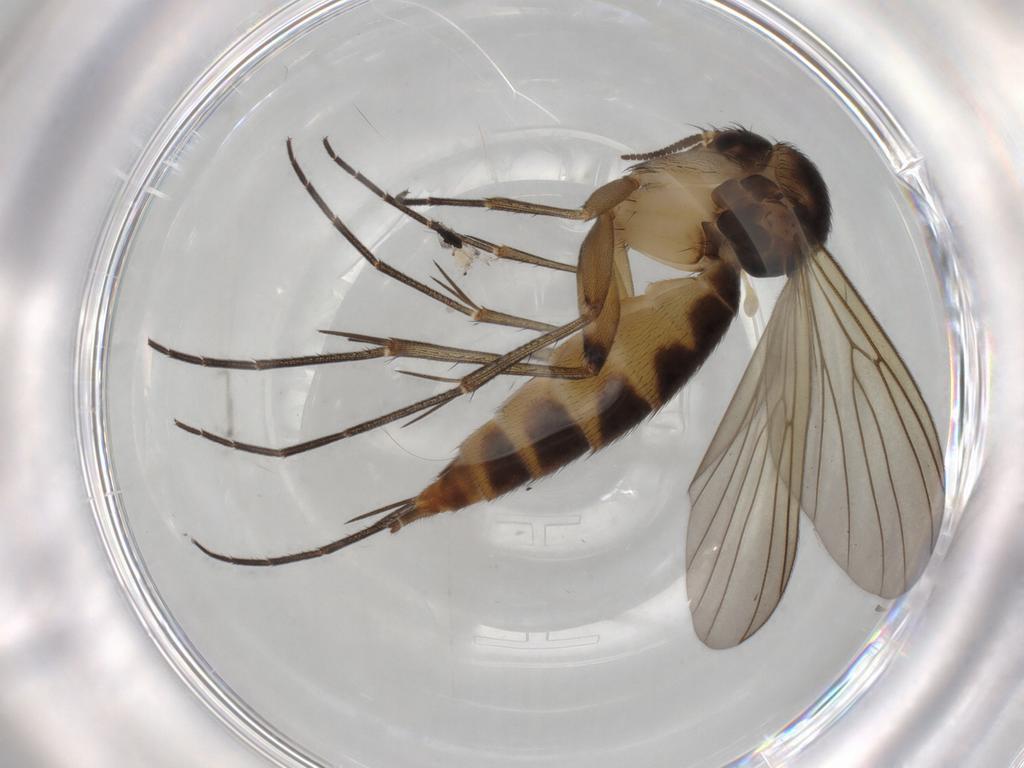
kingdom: Animalia
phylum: Arthropoda
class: Insecta
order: Diptera
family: Mycetophilidae
